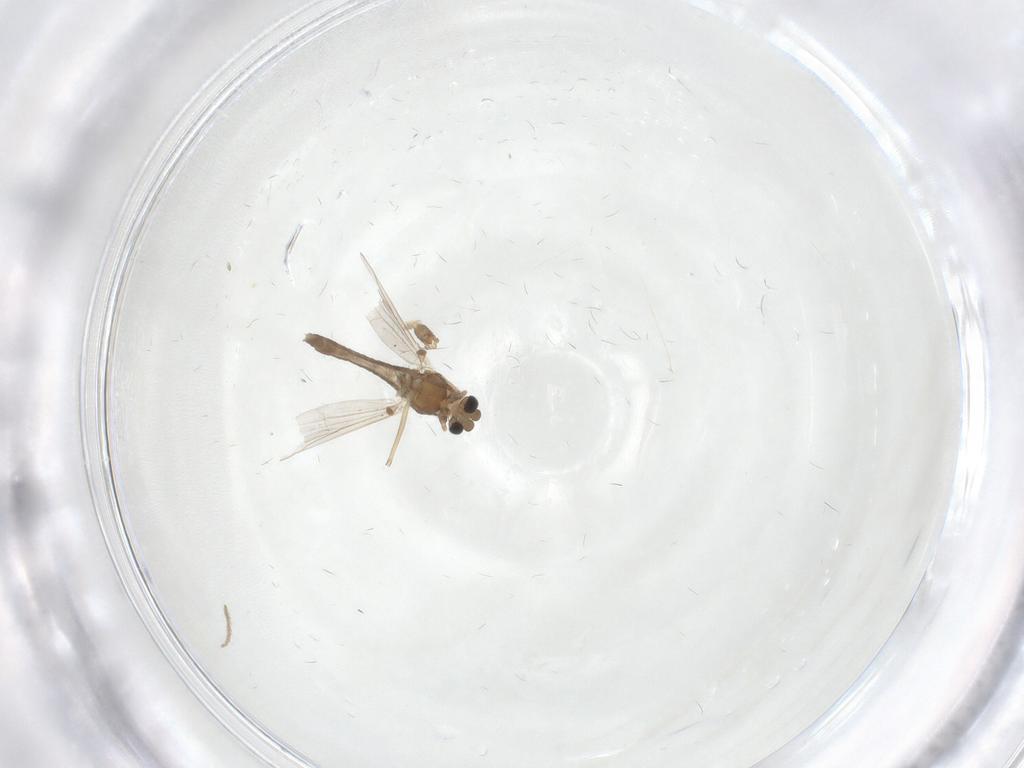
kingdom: Animalia
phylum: Arthropoda
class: Insecta
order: Diptera
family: Chironomidae
